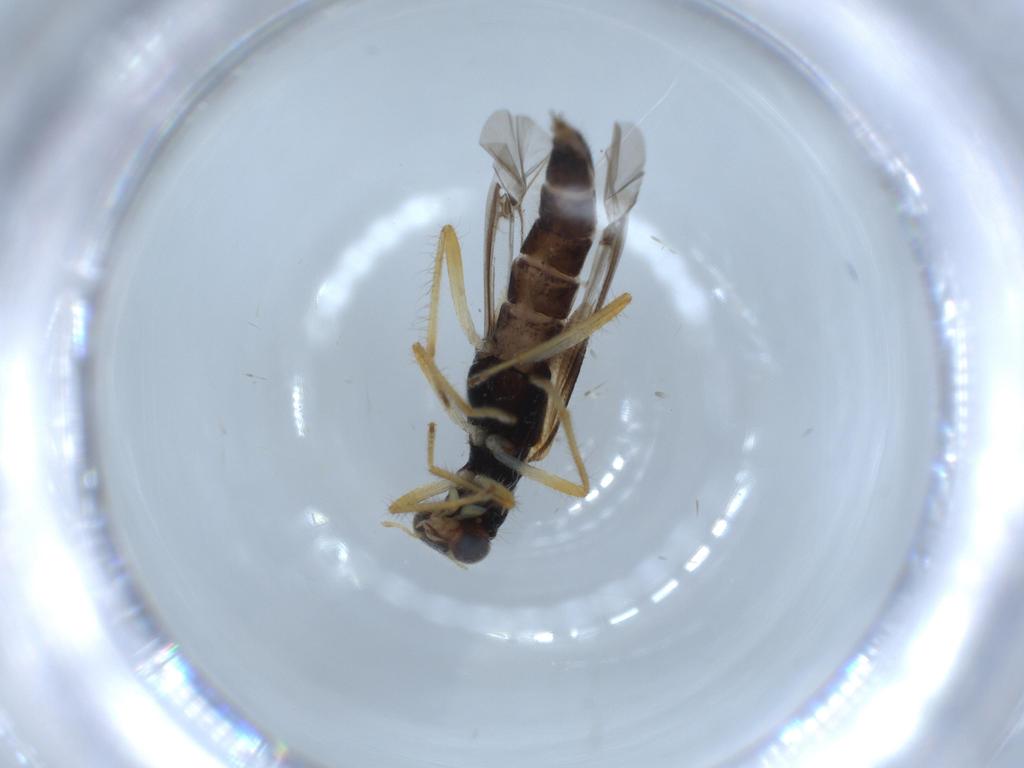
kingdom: Animalia
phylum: Arthropoda
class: Insecta
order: Coleoptera
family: Cleridae
